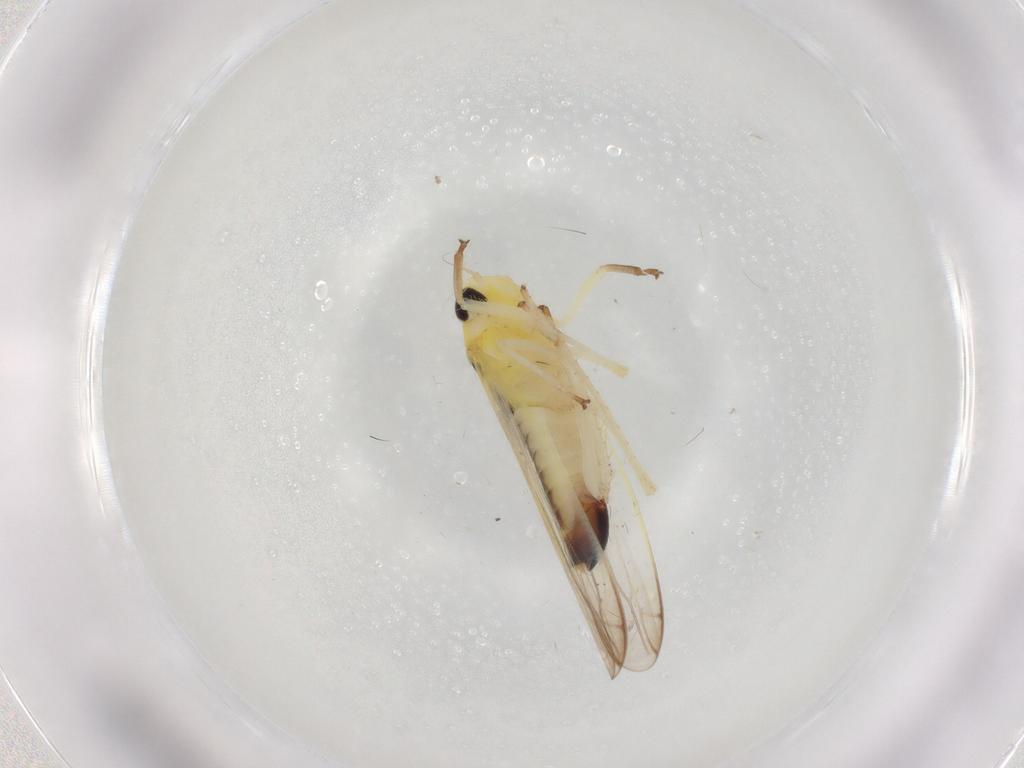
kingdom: Animalia
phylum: Arthropoda
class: Insecta
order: Hemiptera
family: Cicadellidae
